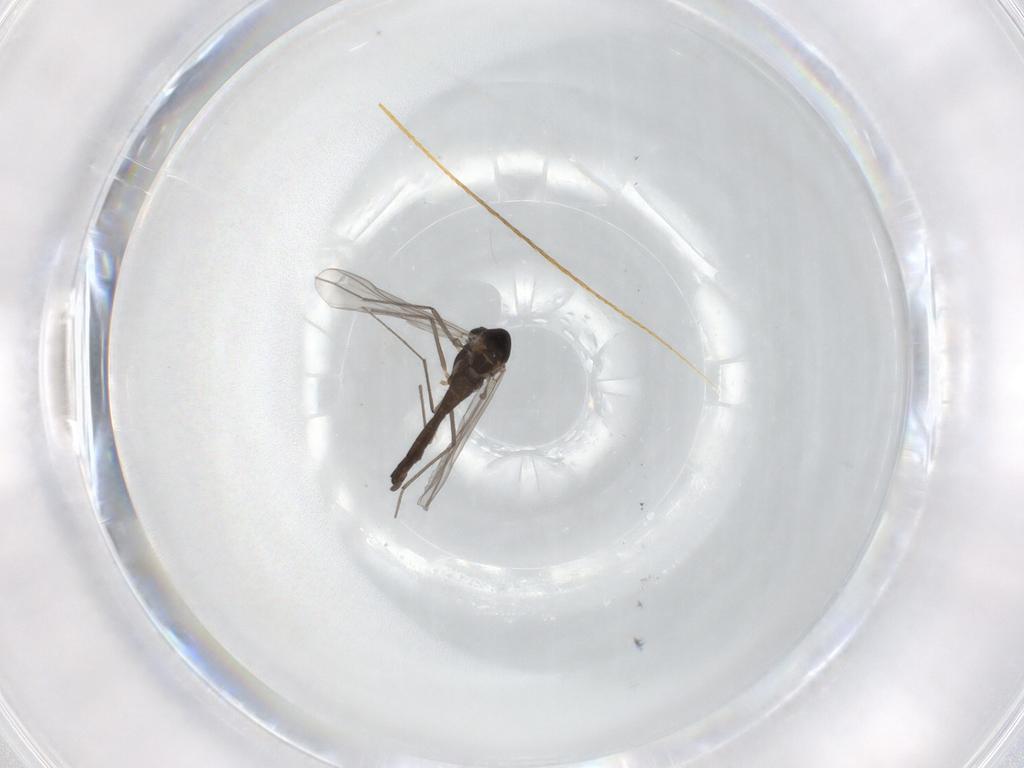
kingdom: Animalia
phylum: Arthropoda
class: Insecta
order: Diptera
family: Chironomidae
